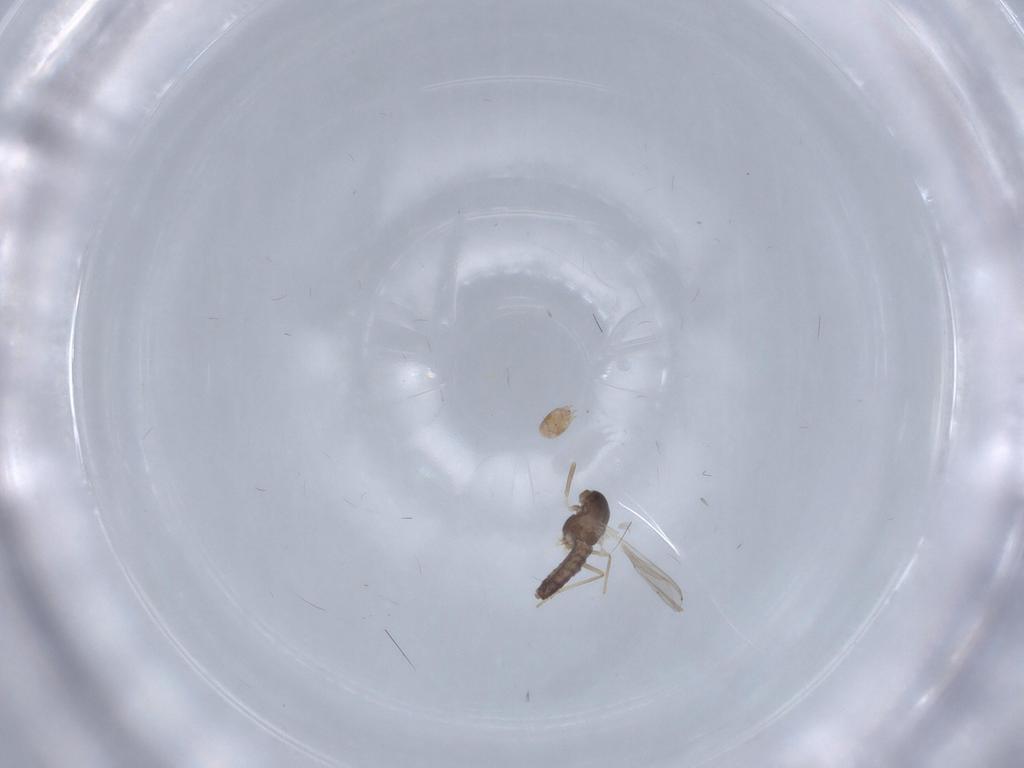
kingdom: Animalia
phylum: Arthropoda
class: Insecta
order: Diptera
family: Chironomidae
